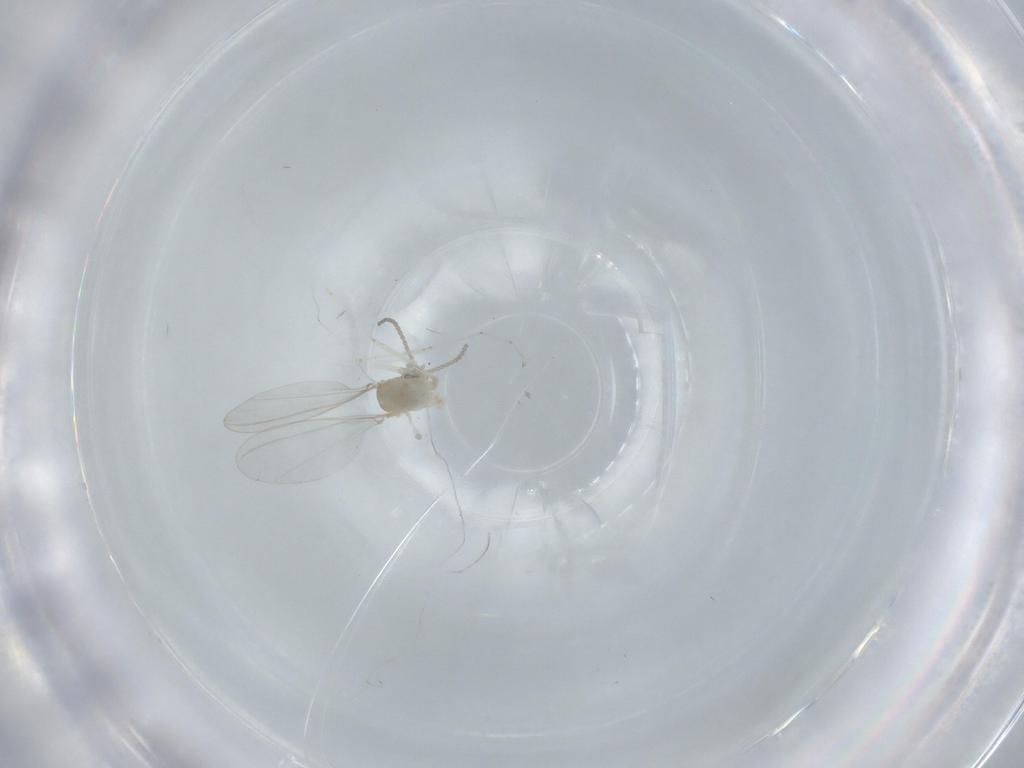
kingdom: Animalia
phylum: Arthropoda
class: Insecta
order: Diptera
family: Cecidomyiidae
